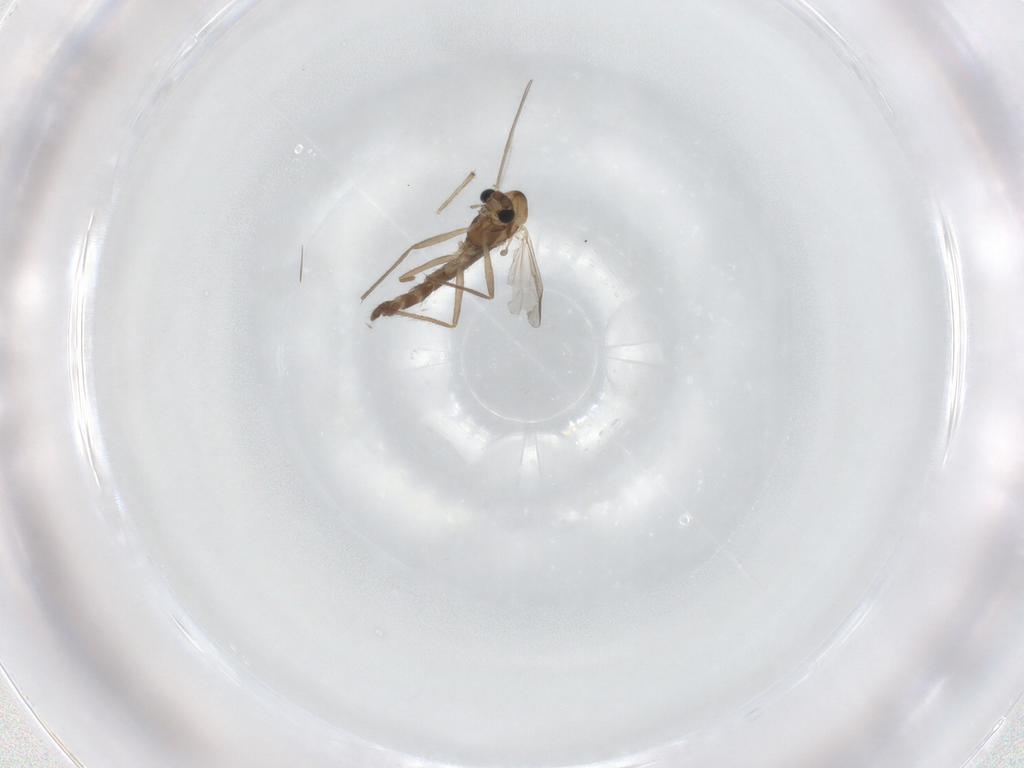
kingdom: Animalia
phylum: Arthropoda
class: Insecta
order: Diptera
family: Chironomidae
